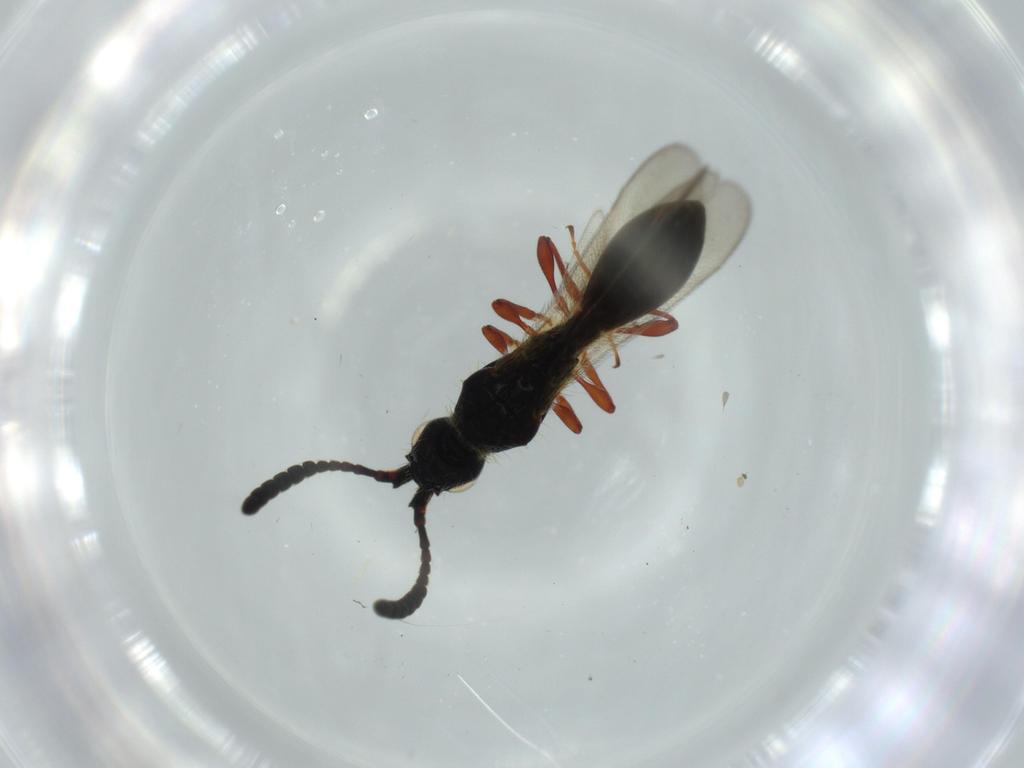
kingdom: Animalia
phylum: Arthropoda
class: Insecta
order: Hymenoptera
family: Diapriidae
